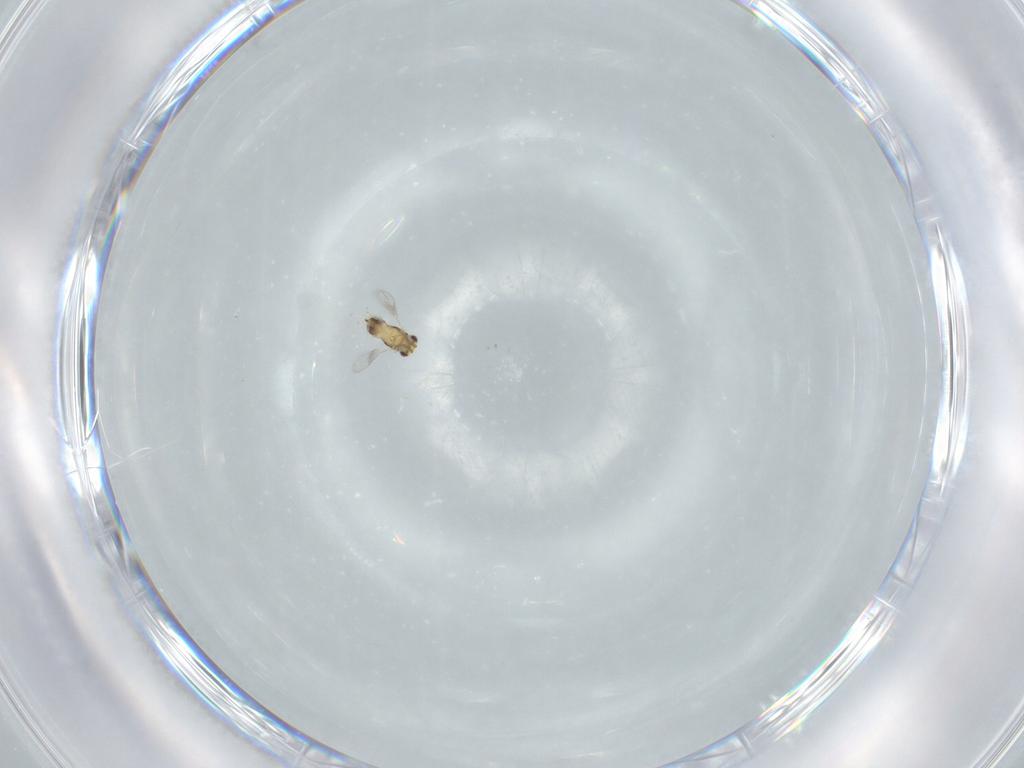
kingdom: Animalia
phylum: Arthropoda
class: Insecta
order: Hymenoptera
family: Aphelinidae
